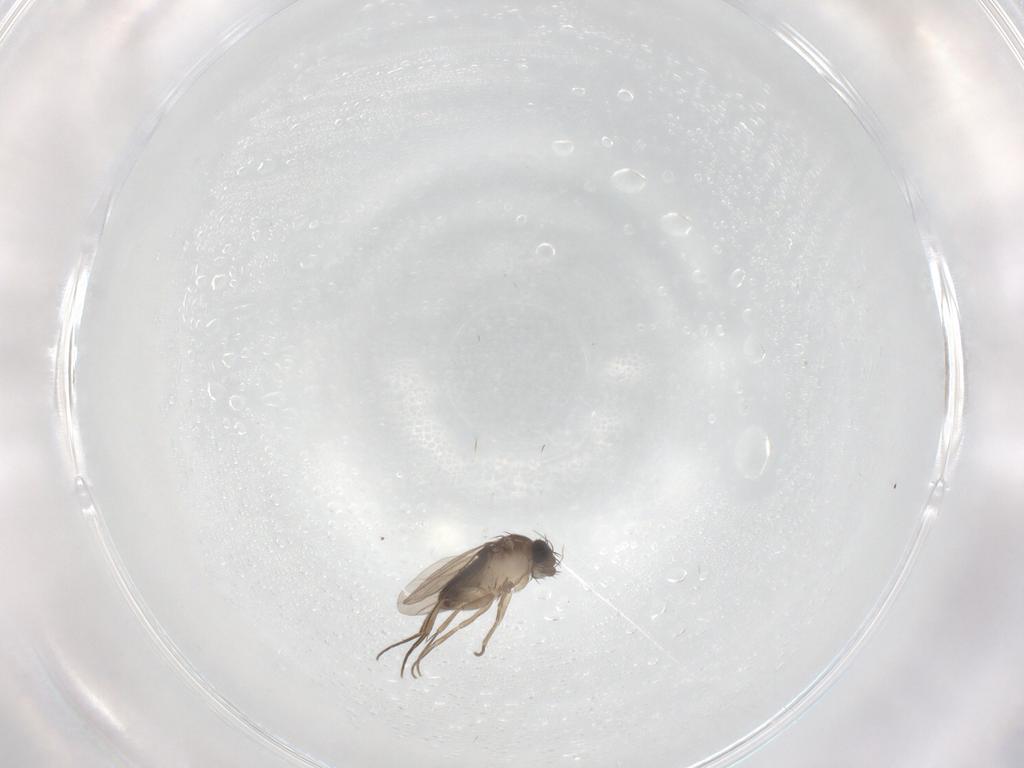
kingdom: Animalia
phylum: Arthropoda
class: Insecta
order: Diptera
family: Phoridae
